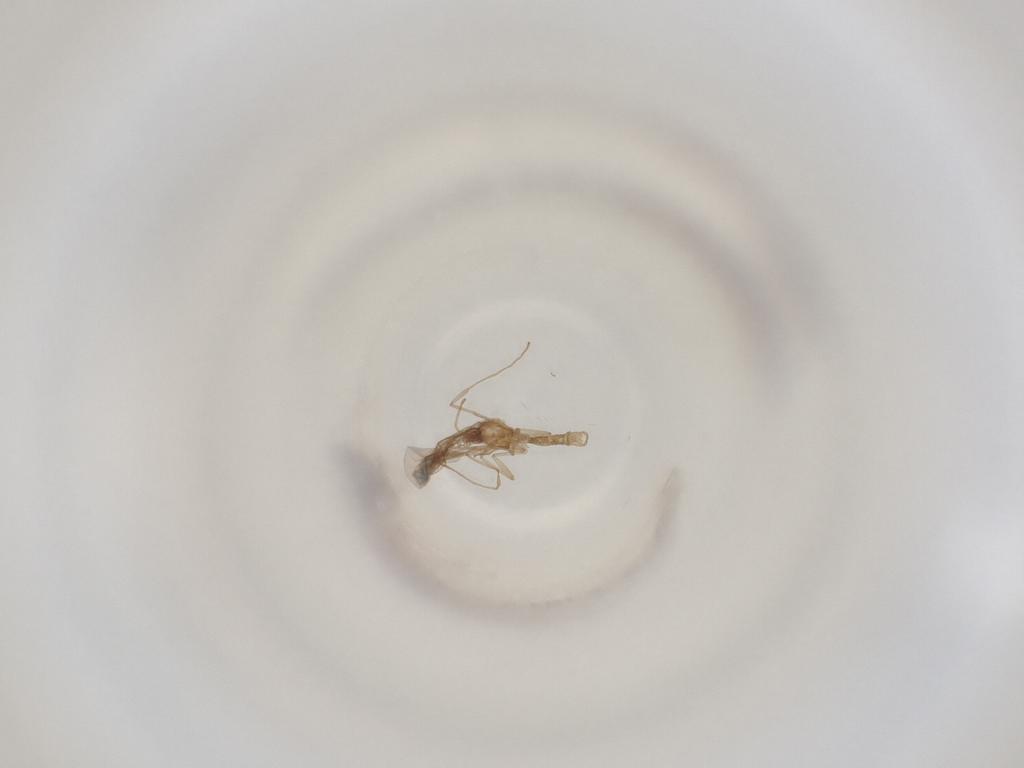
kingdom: Animalia
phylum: Arthropoda
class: Insecta
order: Diptera
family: Cecidomyiidae
